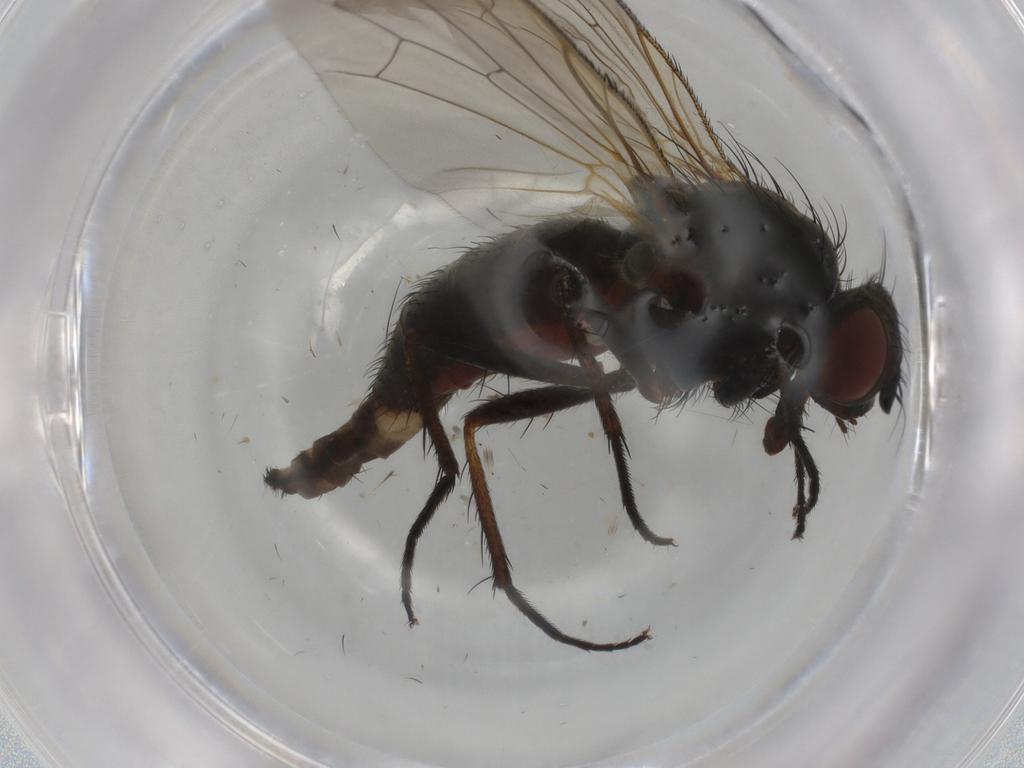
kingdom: Animalia
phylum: Arthropoda
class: Insecta
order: Diptera
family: Anthomyiidae
